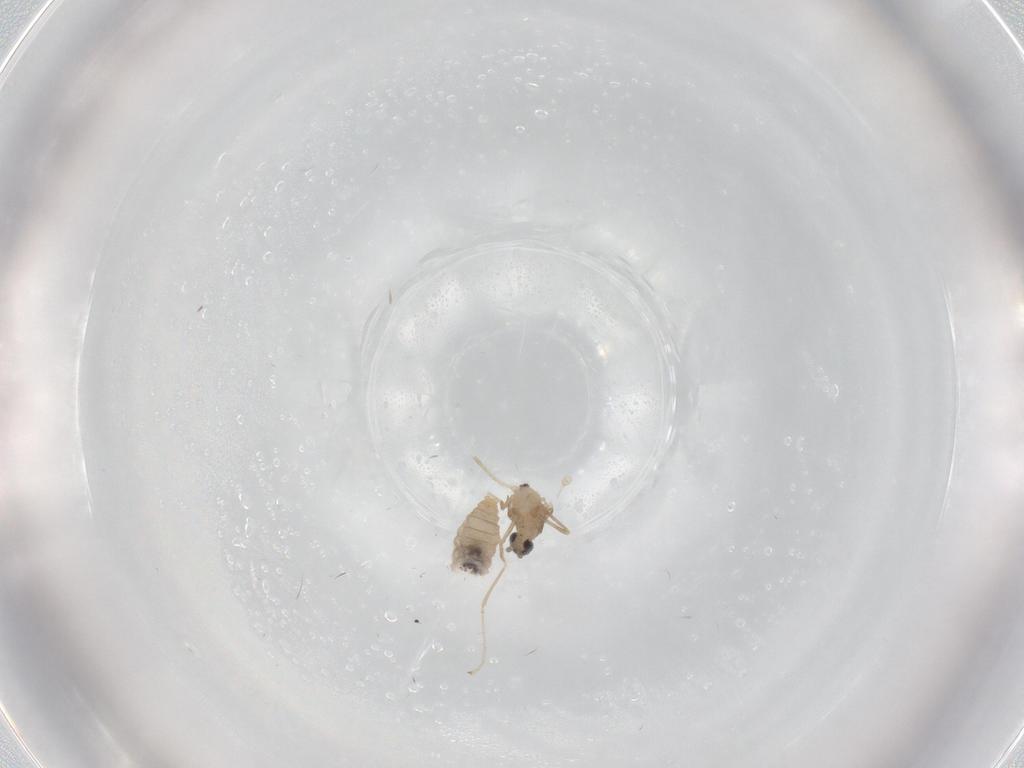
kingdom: Animalia
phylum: Arthropoda
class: Insecta
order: Diptera
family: Cecidomyiidae
